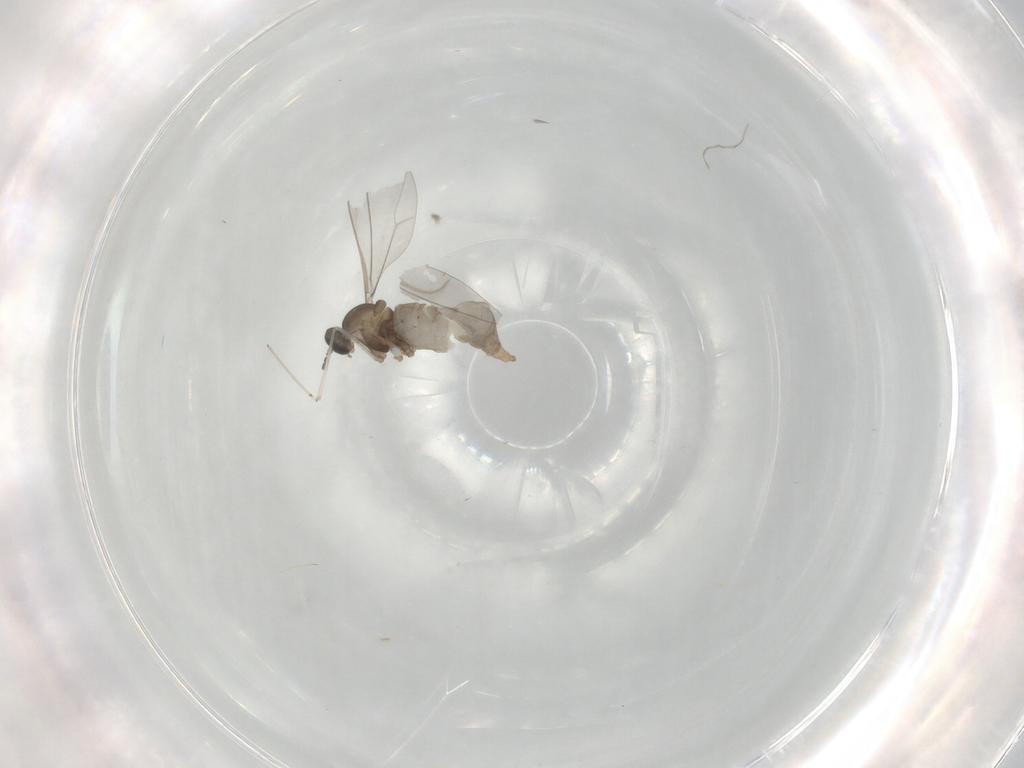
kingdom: Animalia
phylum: Arthropoda
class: Insecta
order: Diptera
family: Cecidomyiidae
